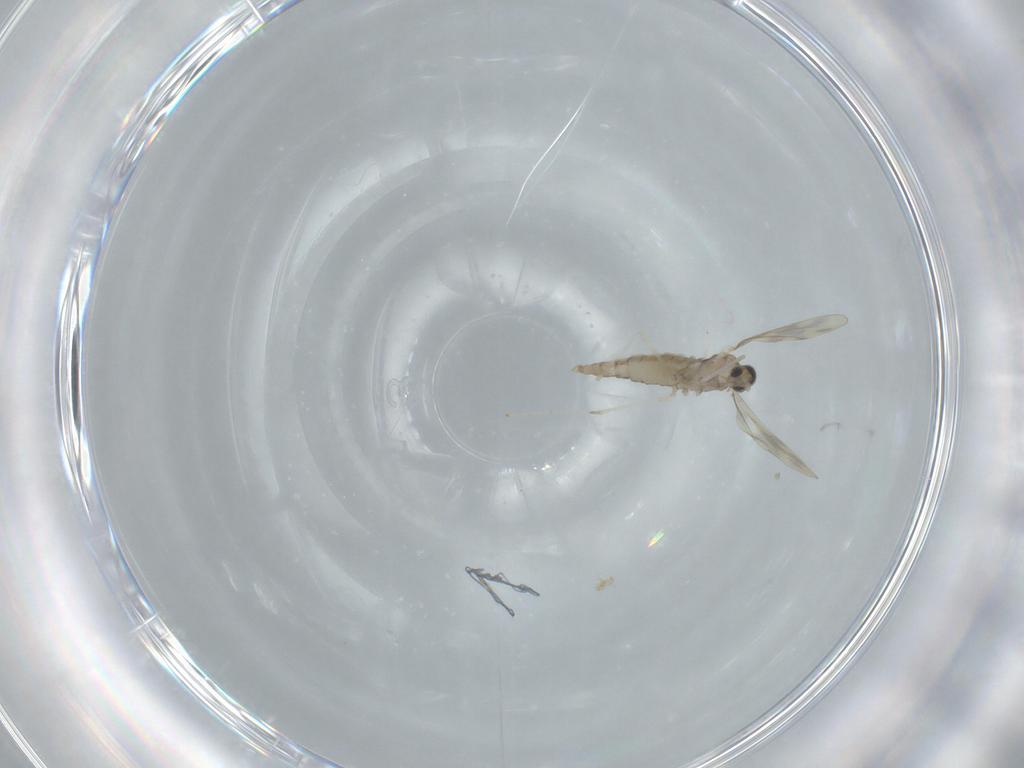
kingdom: Animalia
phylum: Arthropoda
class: Insecta
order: Diptera
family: Cecidomyiidae
